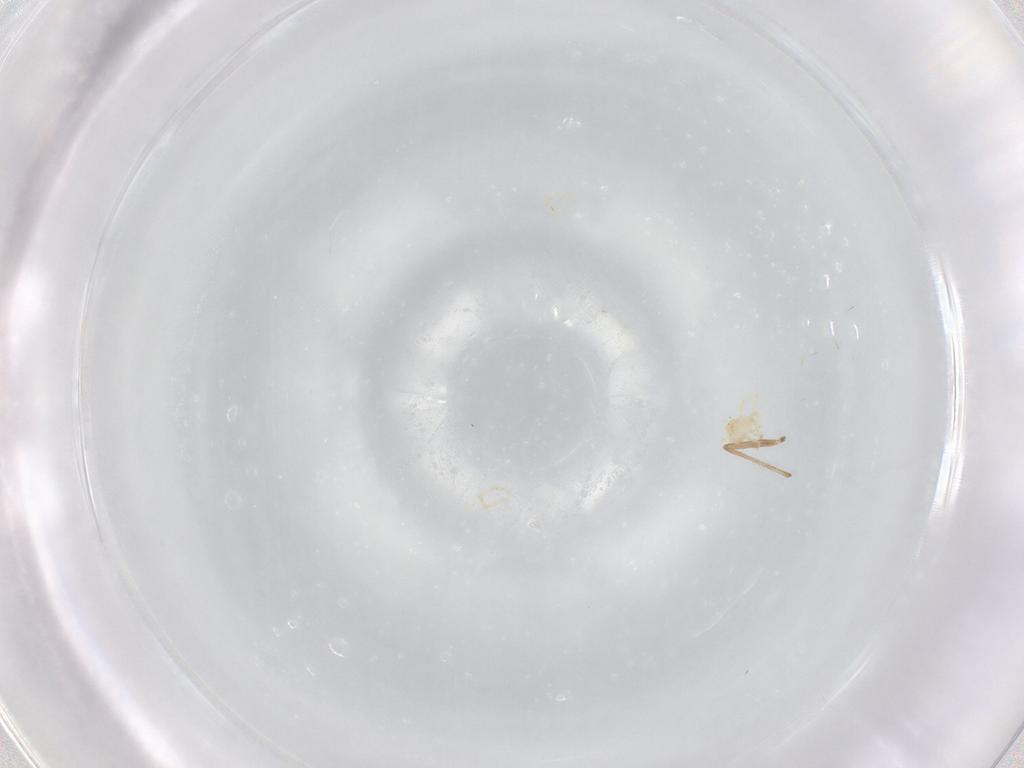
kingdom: Animalia
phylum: Arthropoda
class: Arachnida
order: Trombidiformes
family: Erythraeidae
